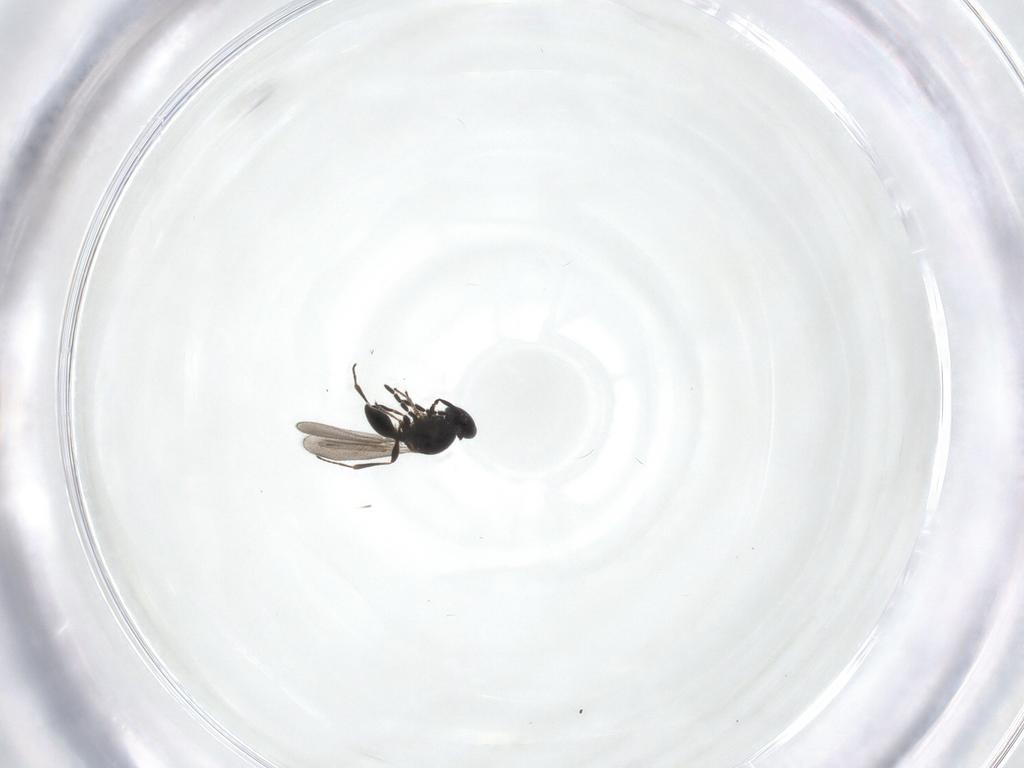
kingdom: Animalia
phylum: Arthropoda
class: Insecta
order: Hymenoptera
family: Platygastridae
